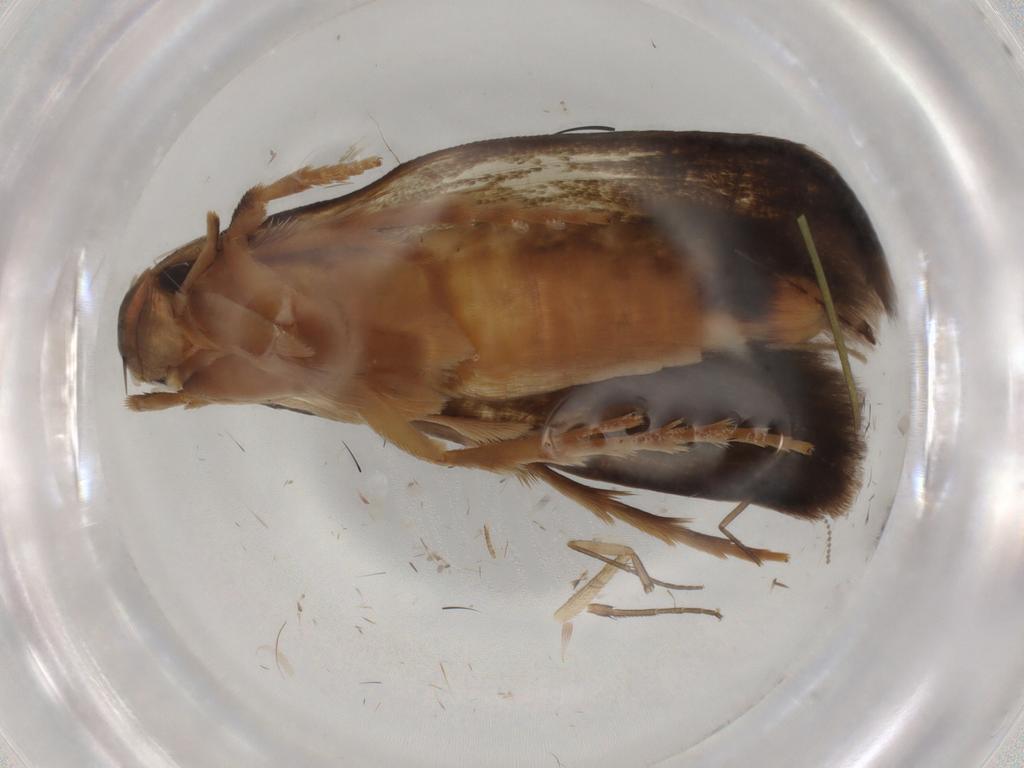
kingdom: Animalia
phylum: Arthropoda
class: Insecta
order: Lepidoptera
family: Tineidae
